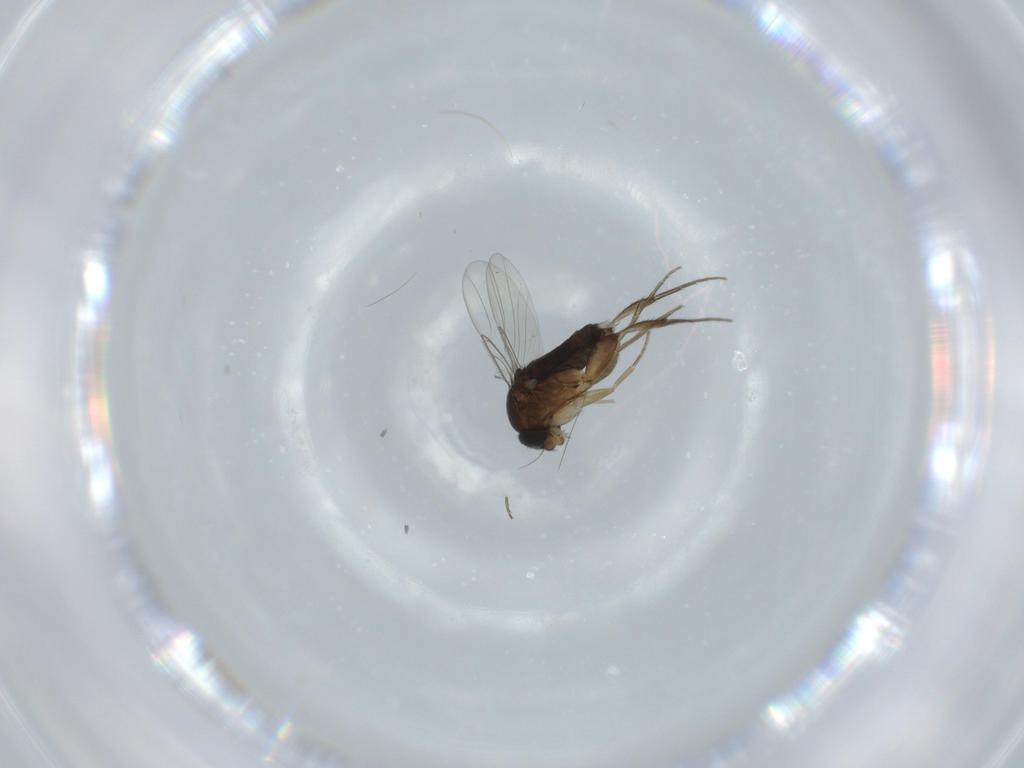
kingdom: Animalia
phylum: Arthropoda
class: Insecta
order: Diptera
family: Phoridae
